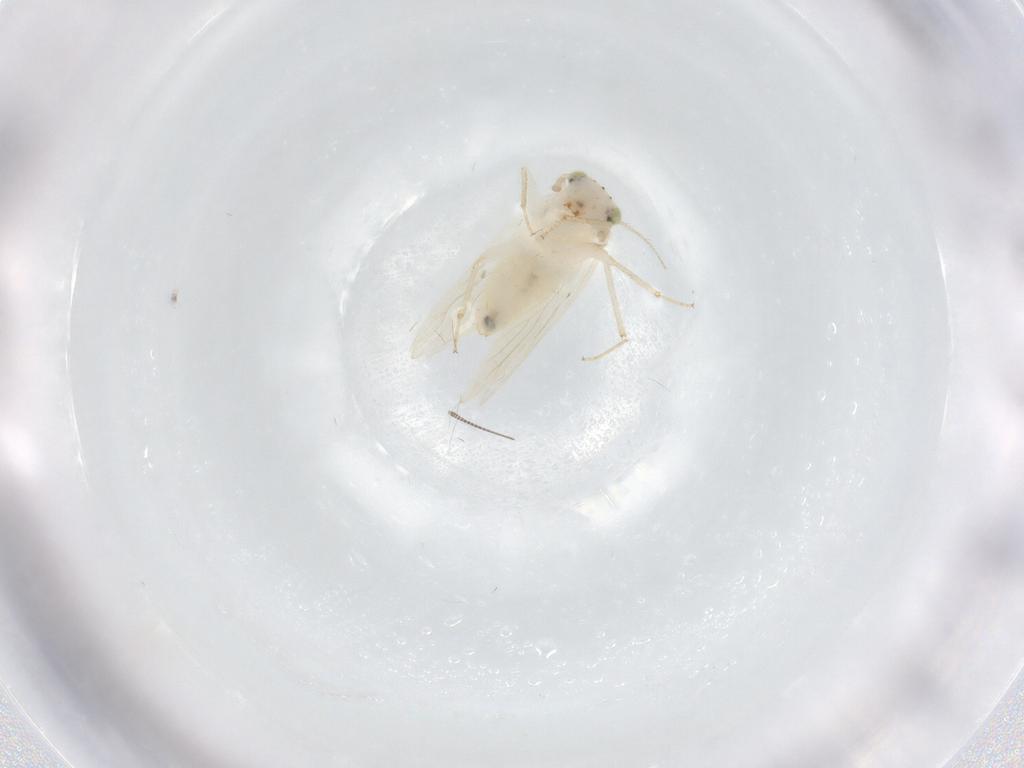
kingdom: Animalia
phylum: Arthropoda
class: Insecta
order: Psocodea
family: Lepidopsocidae
